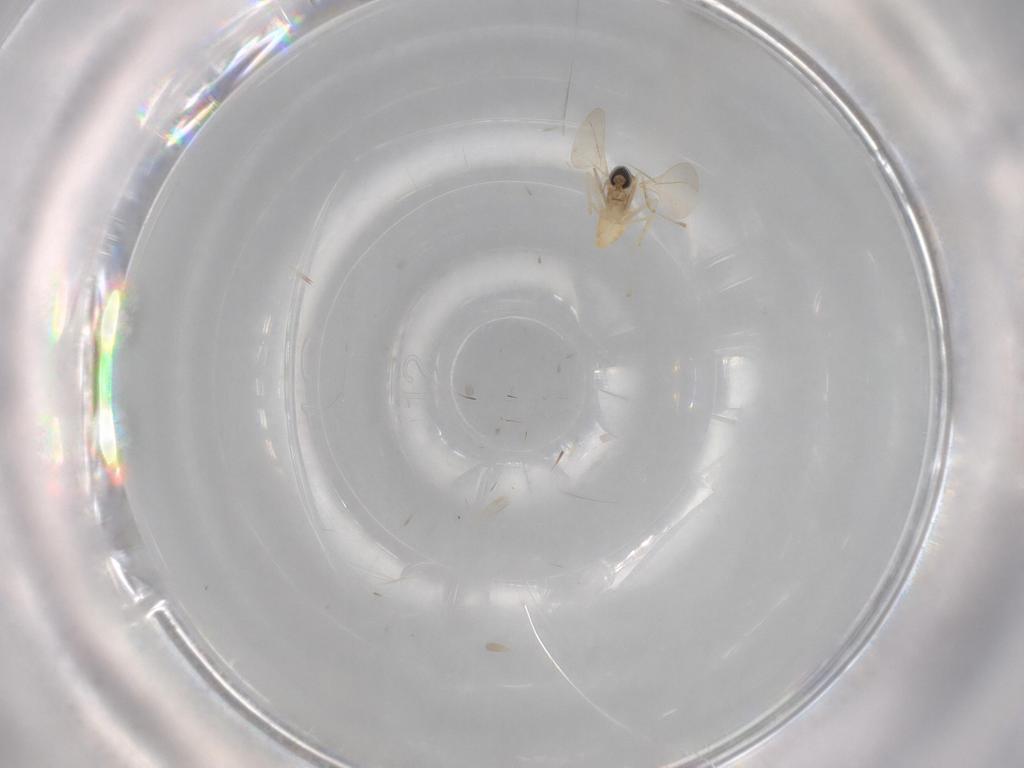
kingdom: Animalia
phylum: Arthropoda
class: Insecta
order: Diptera
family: Cecidomyiidae
